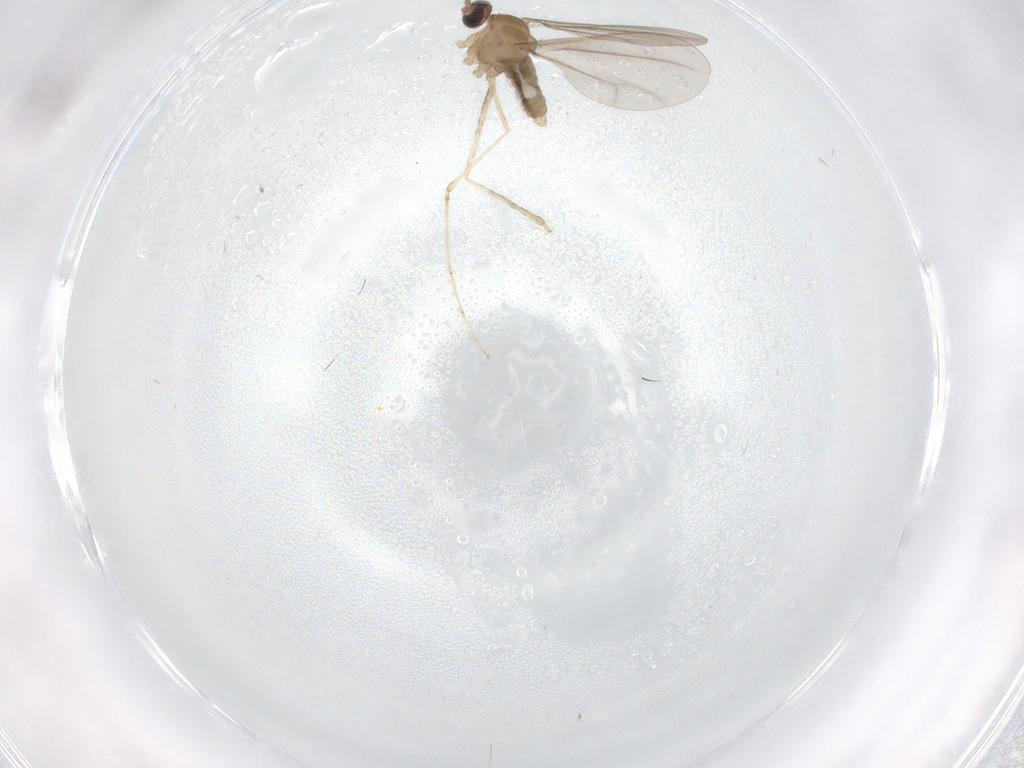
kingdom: Animalia
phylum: Arthropoda
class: Insecta
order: Diptera
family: Cecidomyiidae
